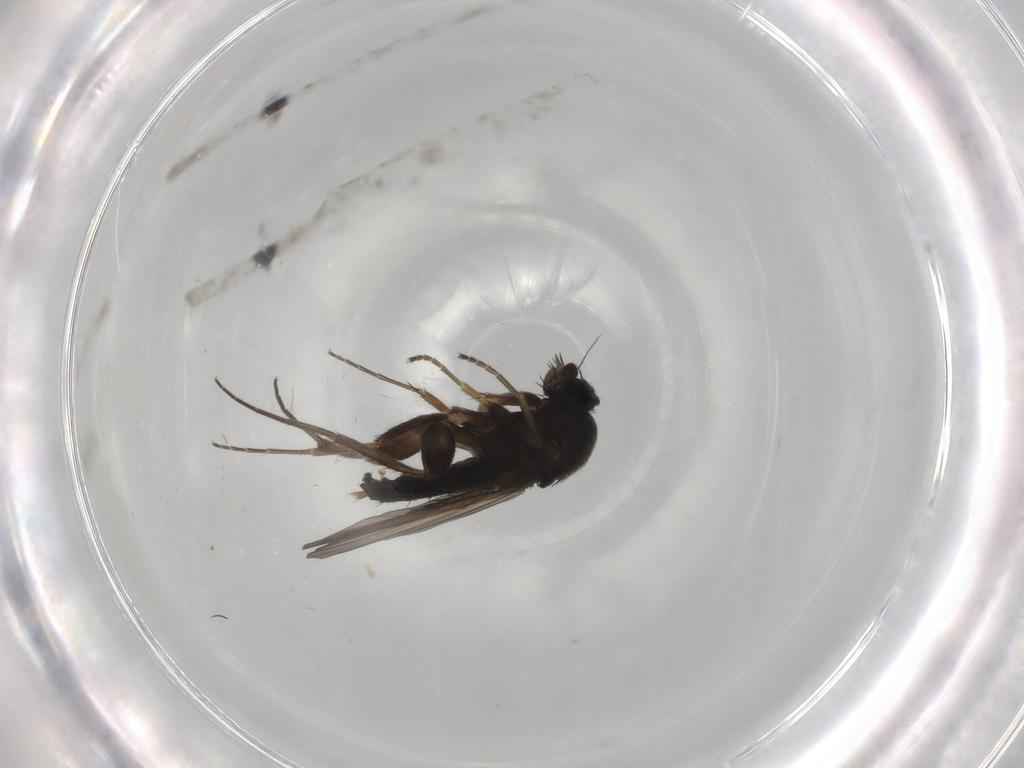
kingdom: Animalia
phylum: Arthropoda
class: Insecta
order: Diptera
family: Phoridae
